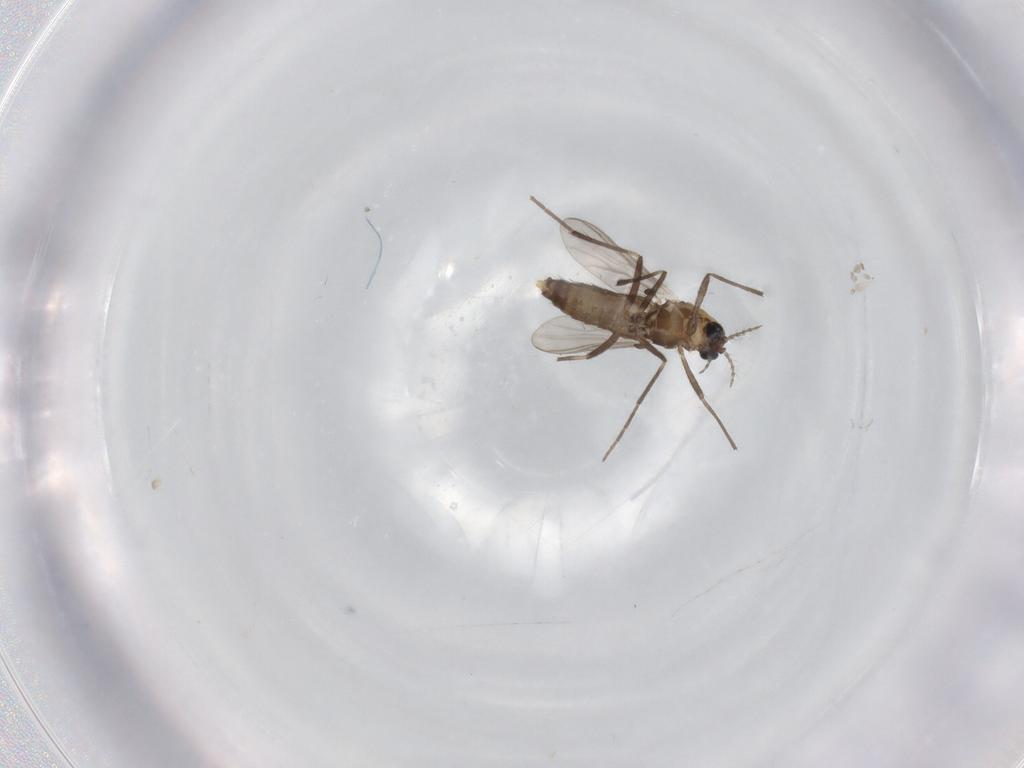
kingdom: Animalia
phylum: Arthropoda
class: Insecta
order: Diptera
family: Chironomidae
